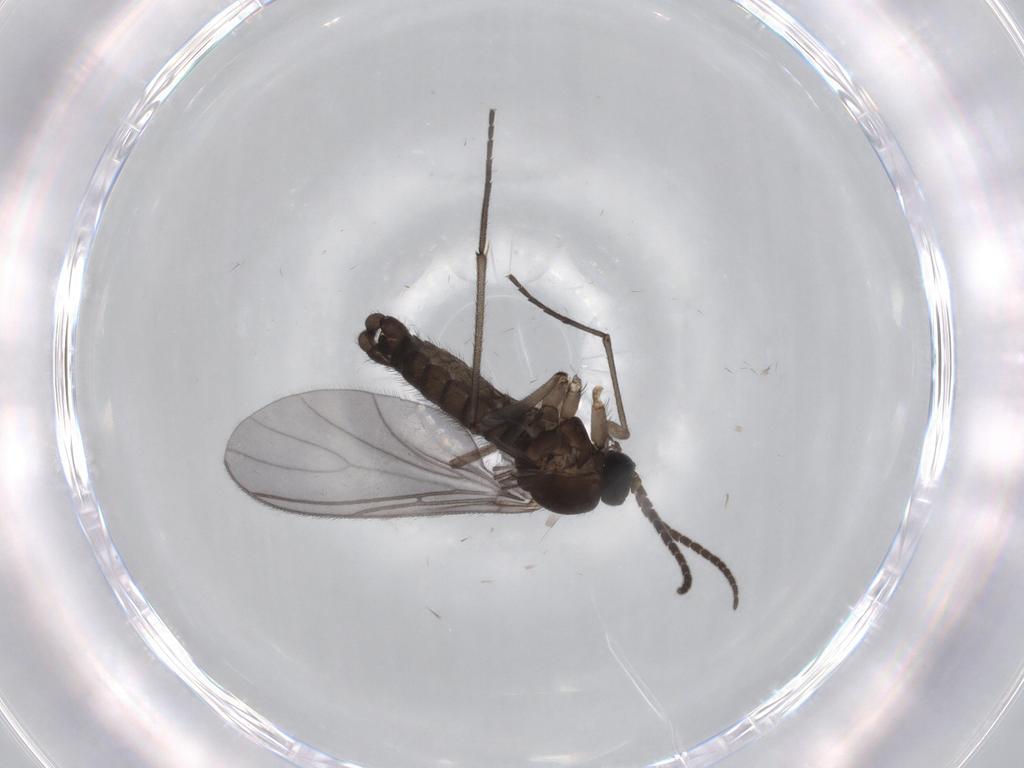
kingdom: Animalia
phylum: Arthropoda
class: Insecta
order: Diptera
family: Sciaridae
